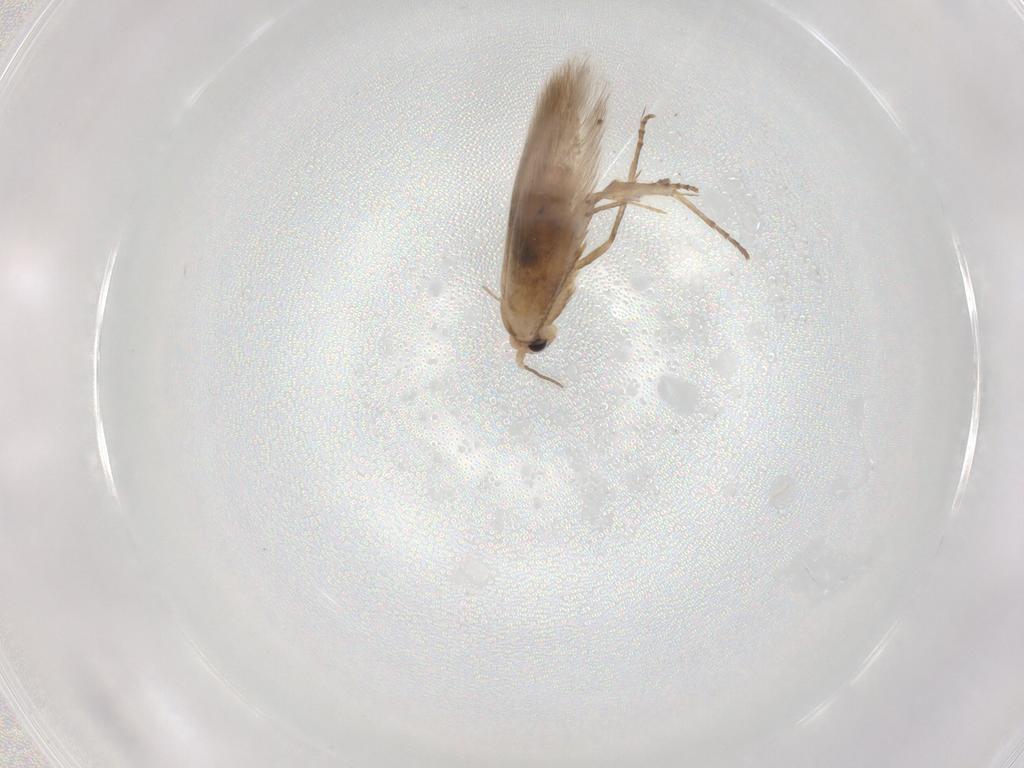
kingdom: Animalia
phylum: Arthropoda
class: Insecta
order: Lepidoptera
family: Bucculatricidae
